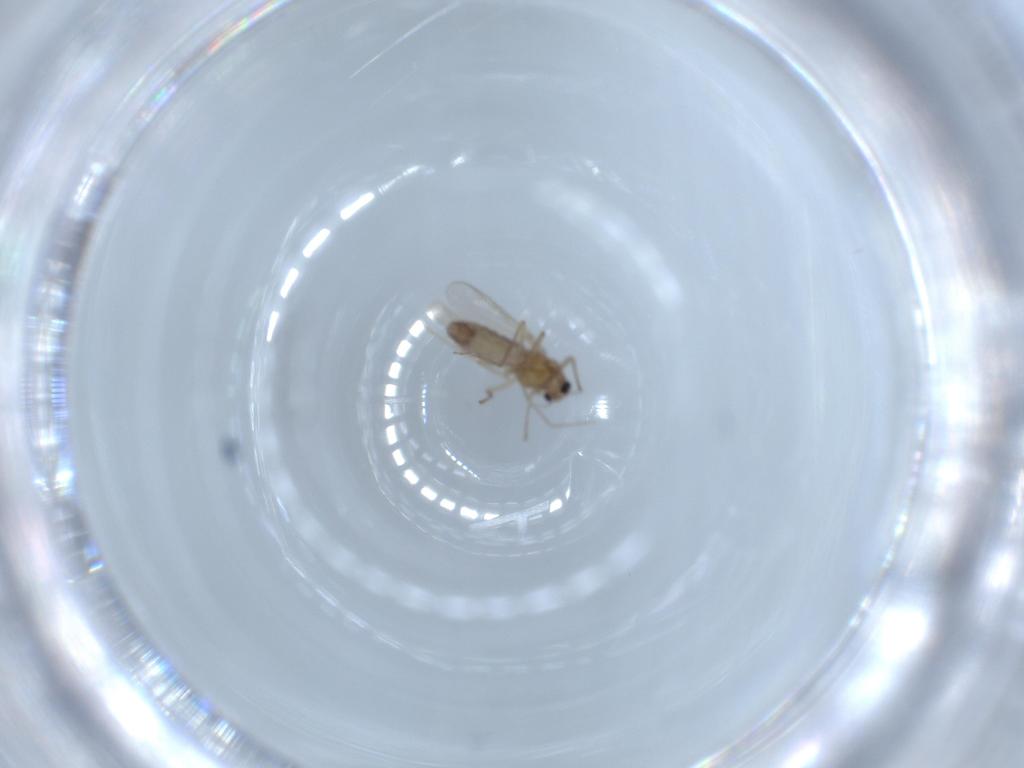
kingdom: Animalia
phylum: Arthropoda
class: Insecta
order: Diptera
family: Chironomidae
